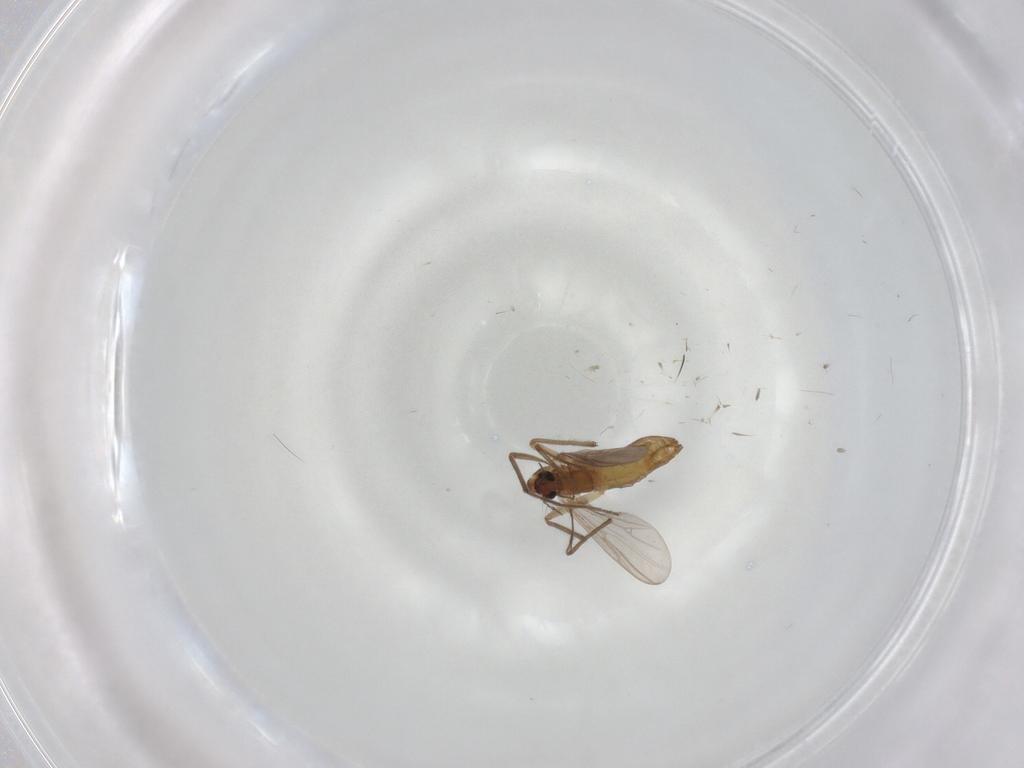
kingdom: Animalia
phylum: Arthropoda
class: Insecta
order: Diptera
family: Chironomidae
